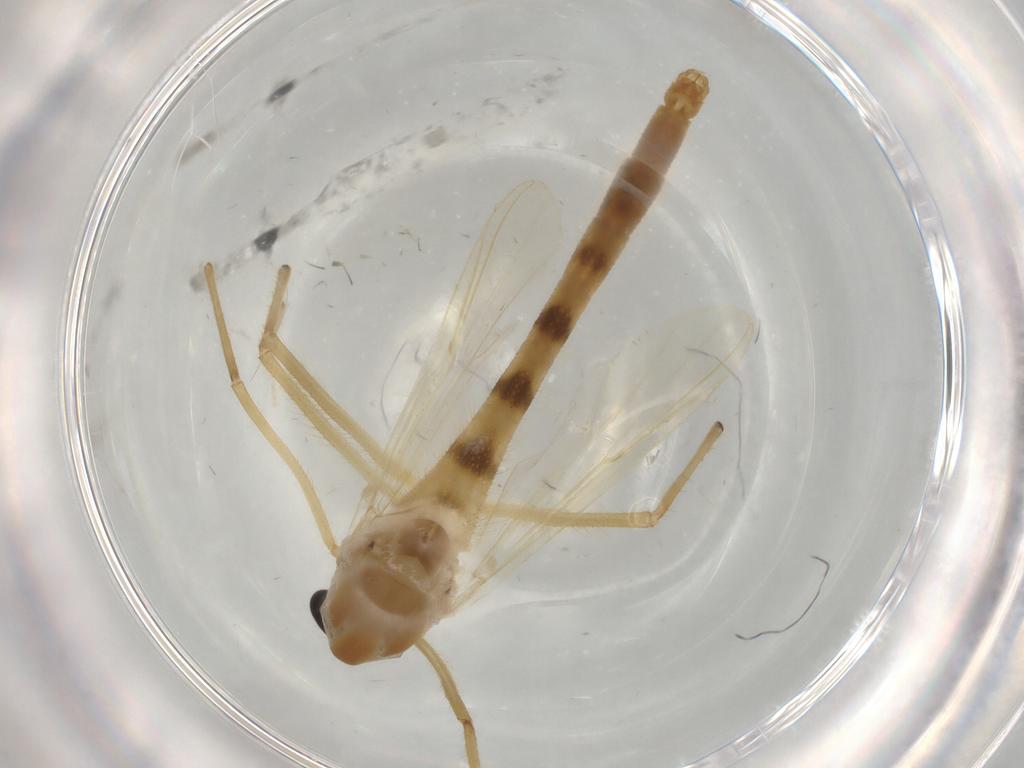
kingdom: Animalia
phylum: Arthropoda
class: Insecta
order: Diptera
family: Chironomidae
